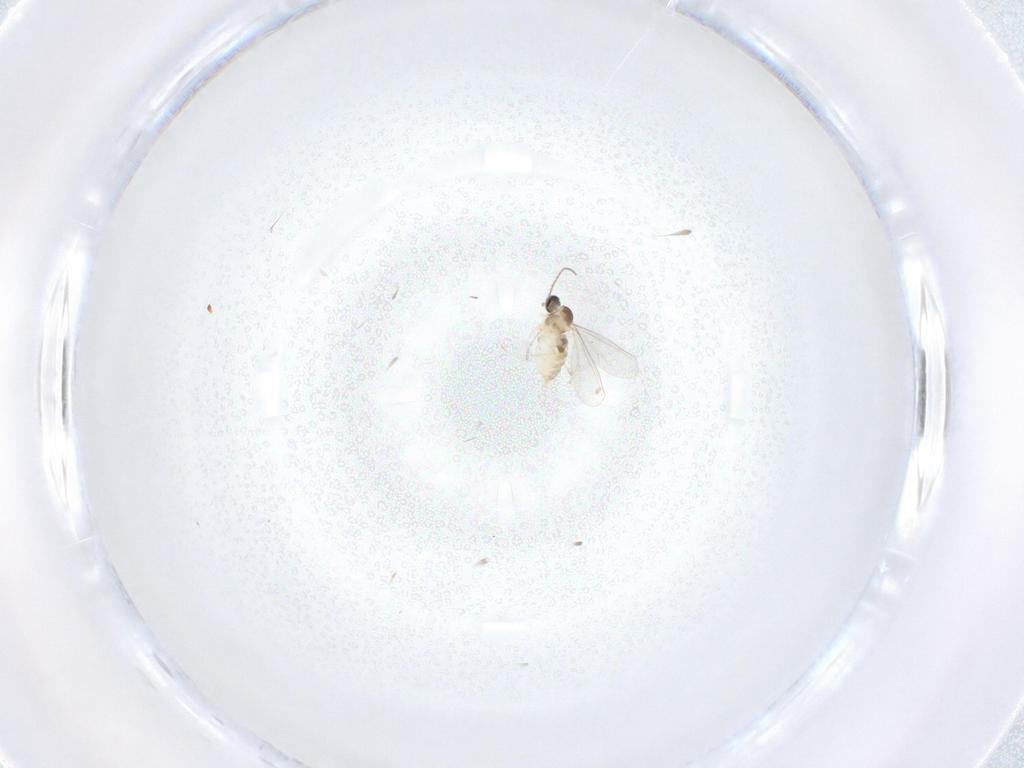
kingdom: Animalia
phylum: Arthropoda
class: Insecta
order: Diptera
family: Cecidomyiidae
